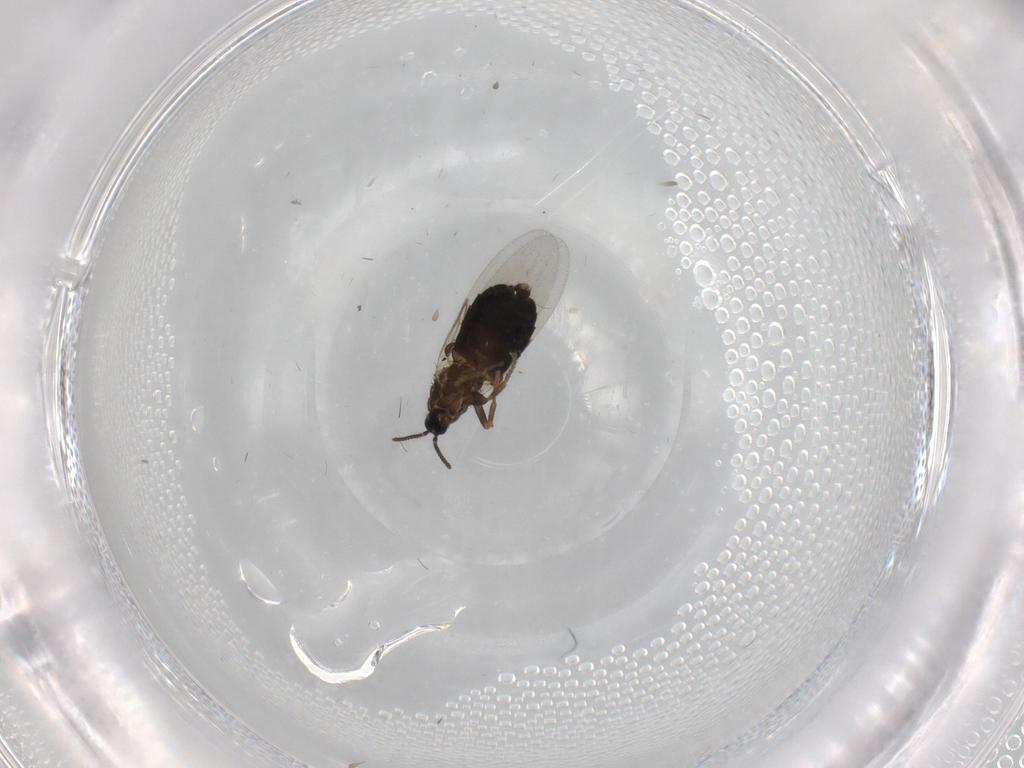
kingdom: Animalia
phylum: Arthropoda
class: Insecta
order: Diptera
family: Scatopsidae
